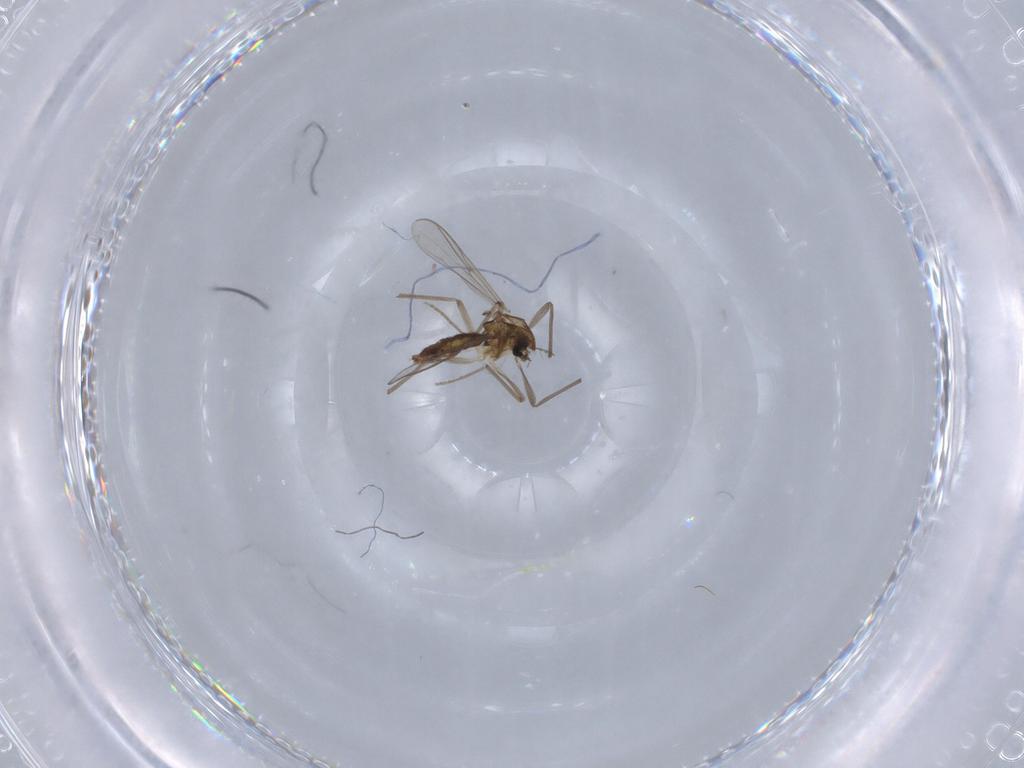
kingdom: Animalia
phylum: Arthropoda
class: Insecta
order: Diptera
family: Chironomidae
